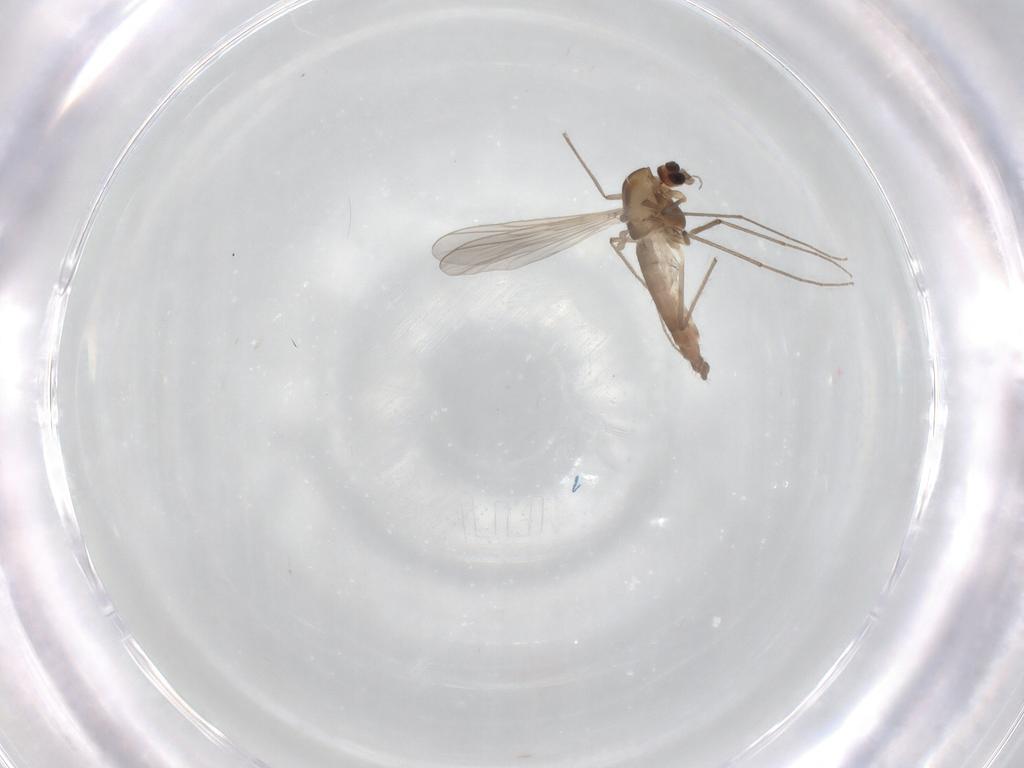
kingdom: Animalia
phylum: Arthropoda
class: Insecta
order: Diptera
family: Chironomidae
